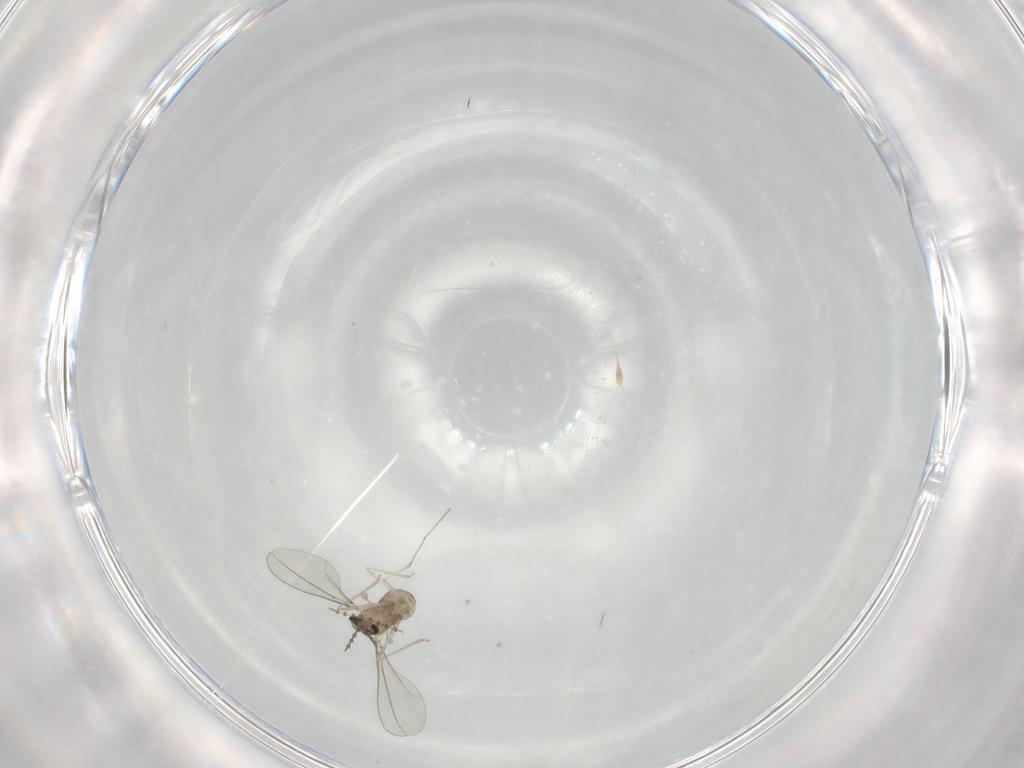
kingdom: Animalia
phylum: Arthropoda
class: Insecta
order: Diptera
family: Cecidomyiidae
